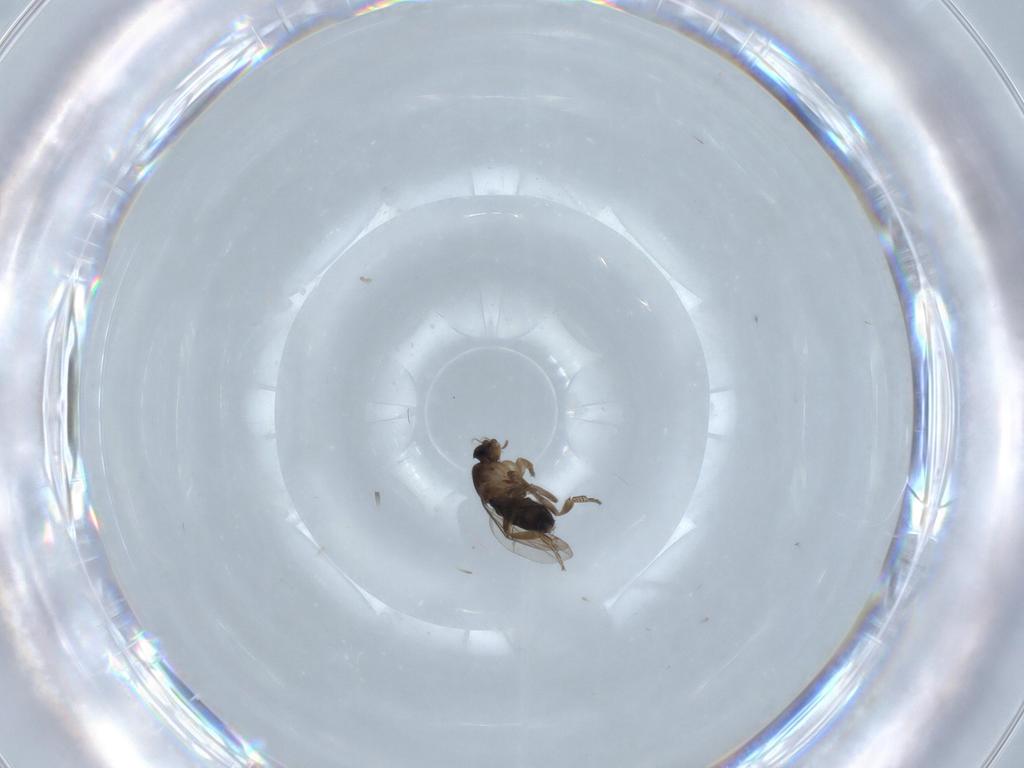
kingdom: Animalia
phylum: Arthropoda
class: Insecta
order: Diptera
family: Phoridae
